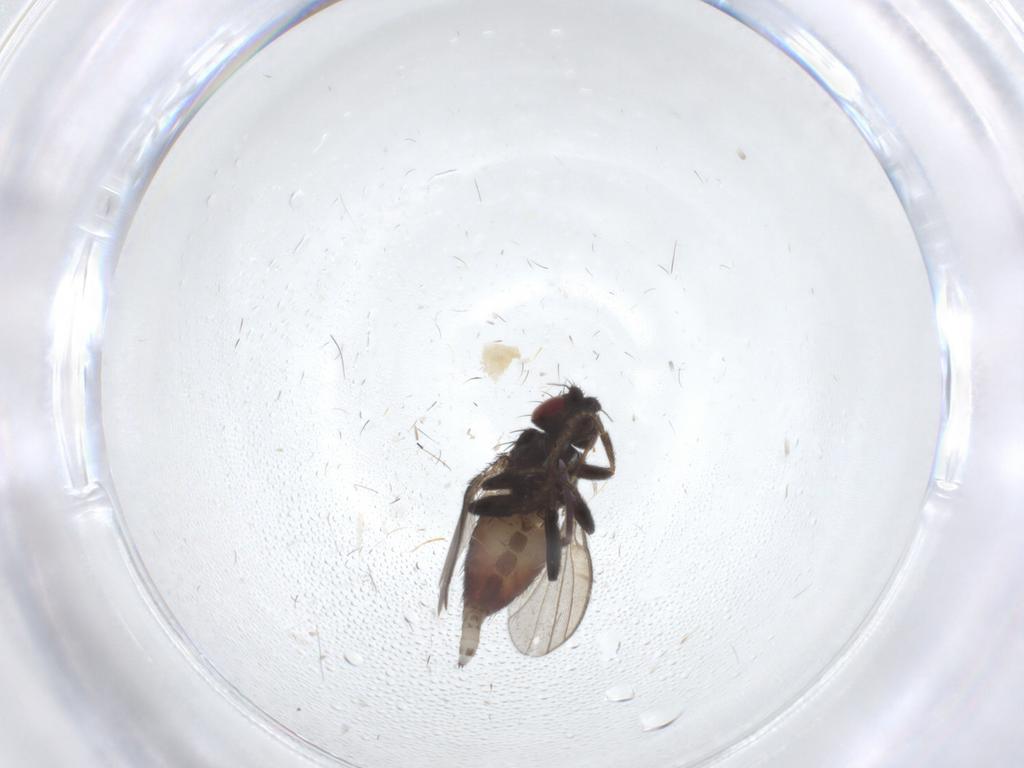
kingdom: Animalia
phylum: Arthropoda
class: Insecta
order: Diptera
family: Milichiidae
